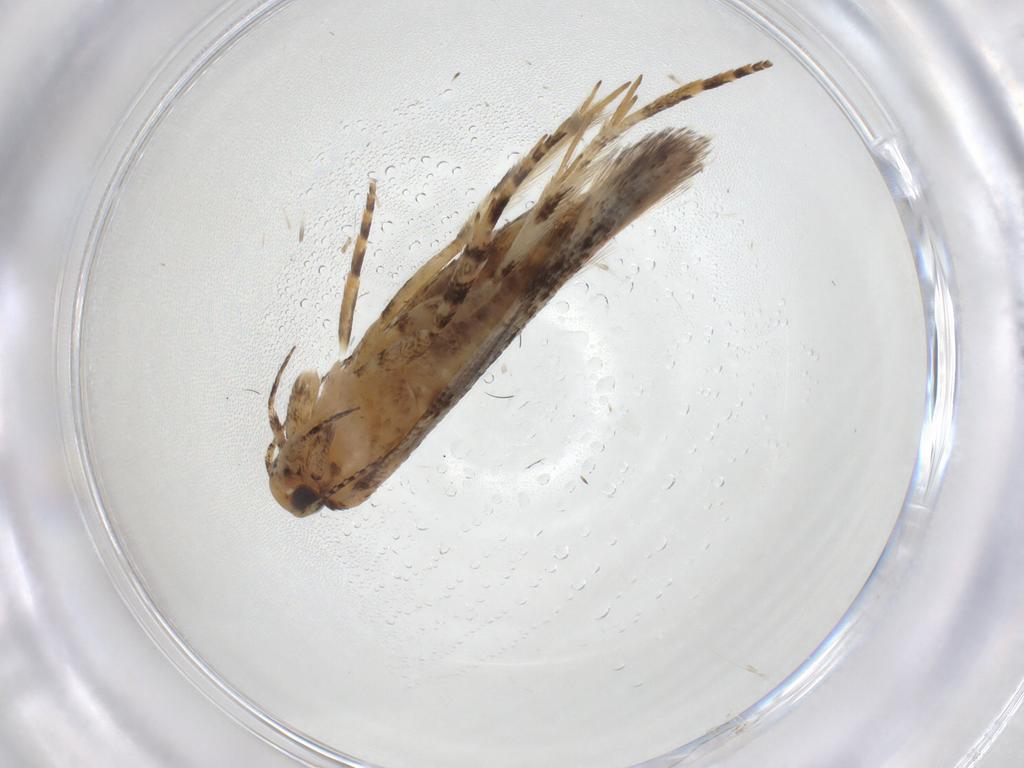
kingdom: Animalia
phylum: Arthropoda
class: Insecta
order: Lepidoptera
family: Gelechiidae
